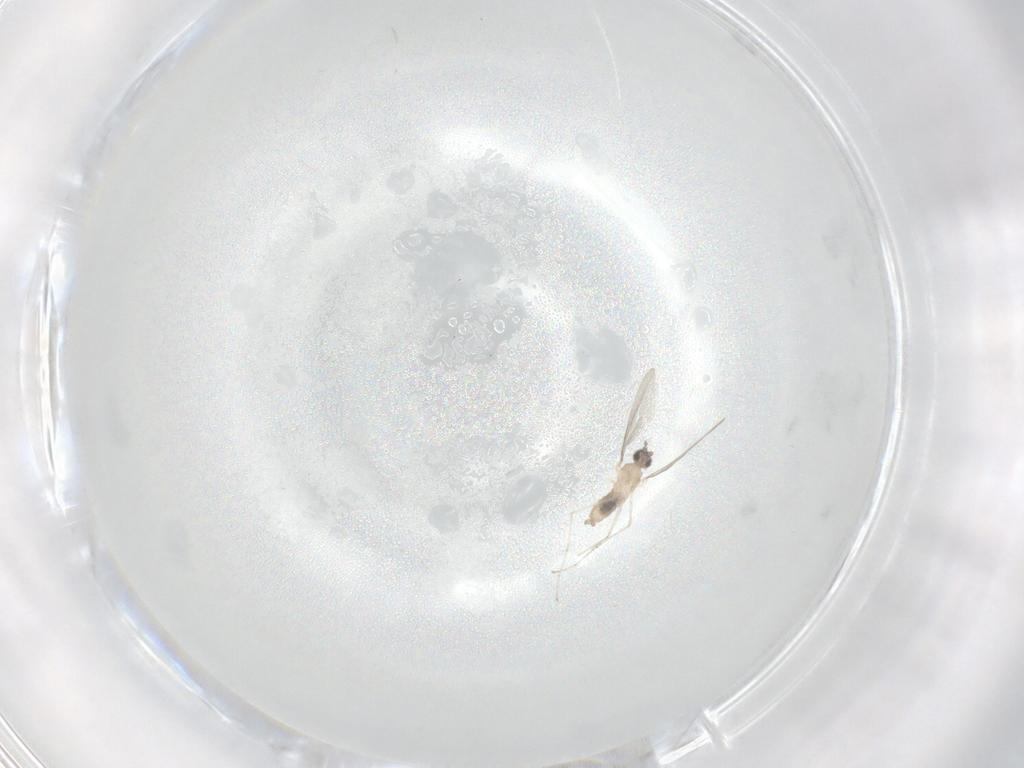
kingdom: Animalia
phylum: Arthropoda
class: Insecta
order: Diptera
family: Cecidomyiidae
